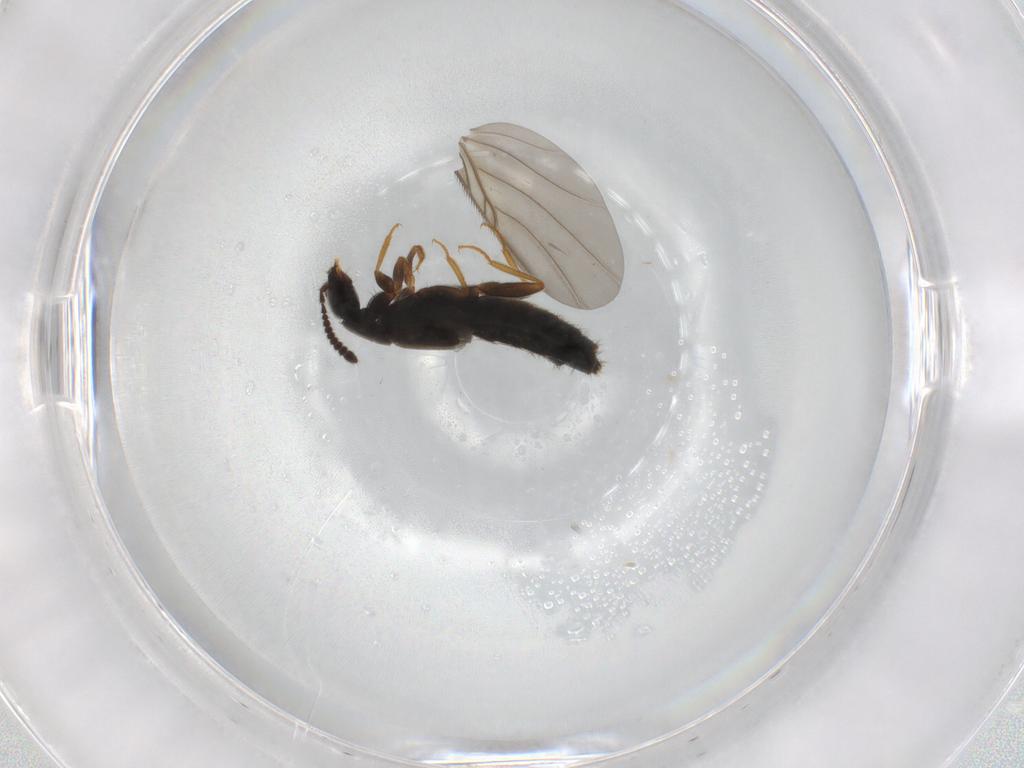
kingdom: Animalia
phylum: Arthropoda
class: Insecta
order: Coleoptera
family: Staphylinidae
